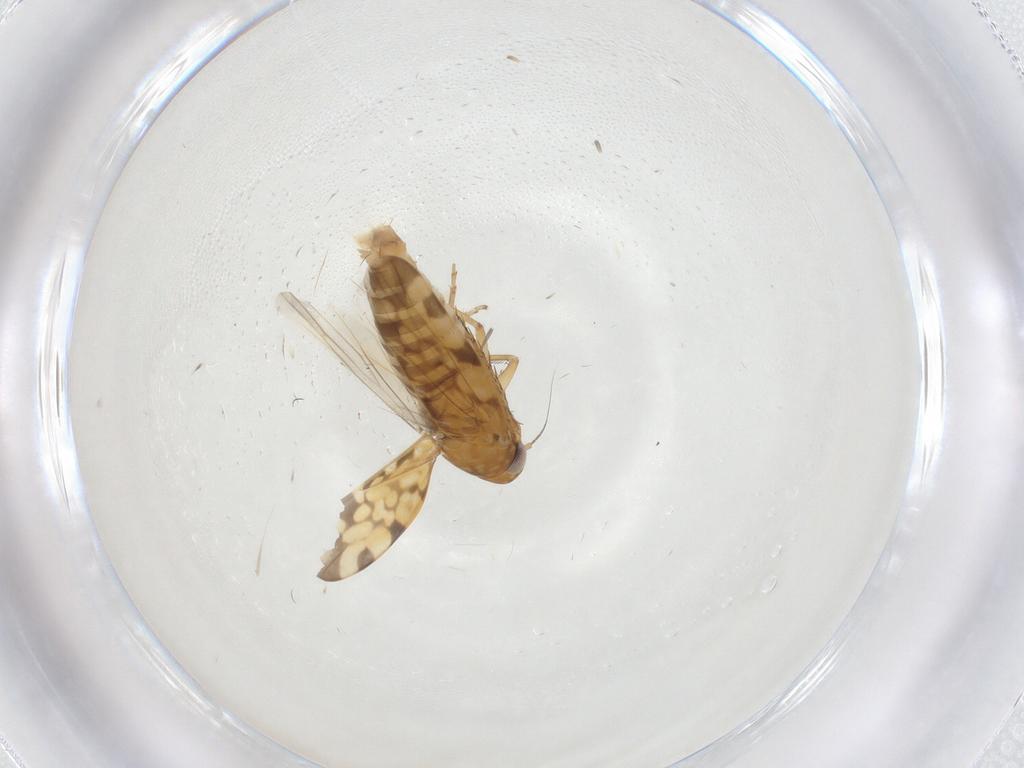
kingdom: Animalia
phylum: Arthropoda
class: Insecta
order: Hemiptera
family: Cicadellidae
